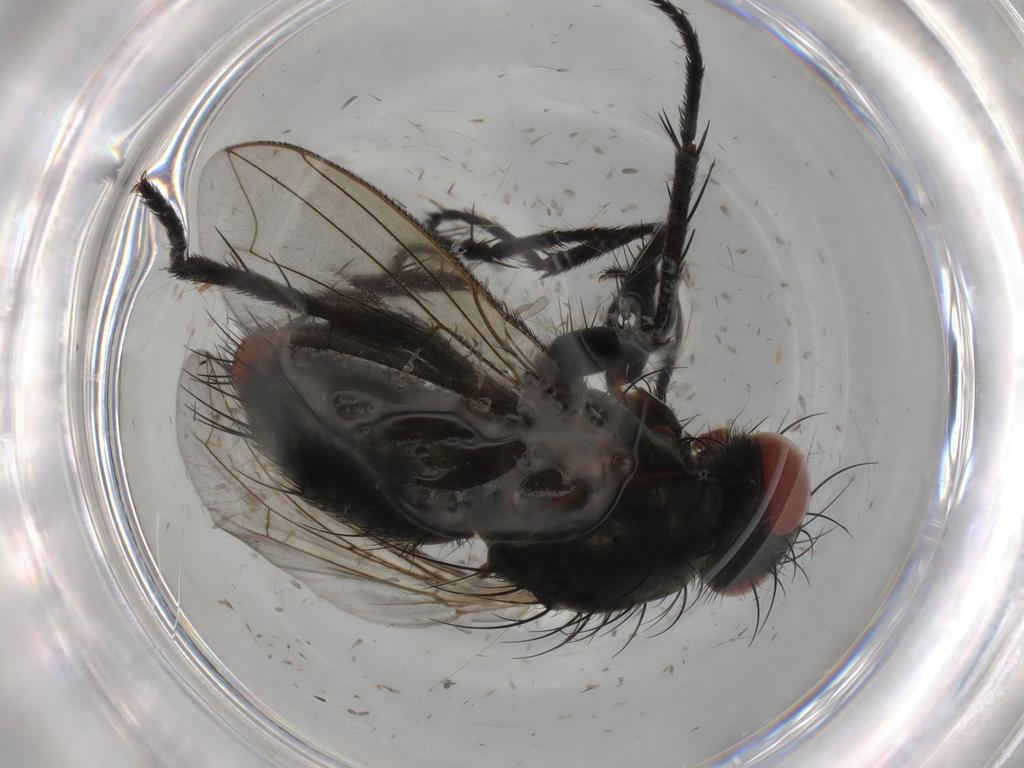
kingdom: Animalia
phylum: Arthropoda
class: Insecta
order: Diptera
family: Sarcophagidae
